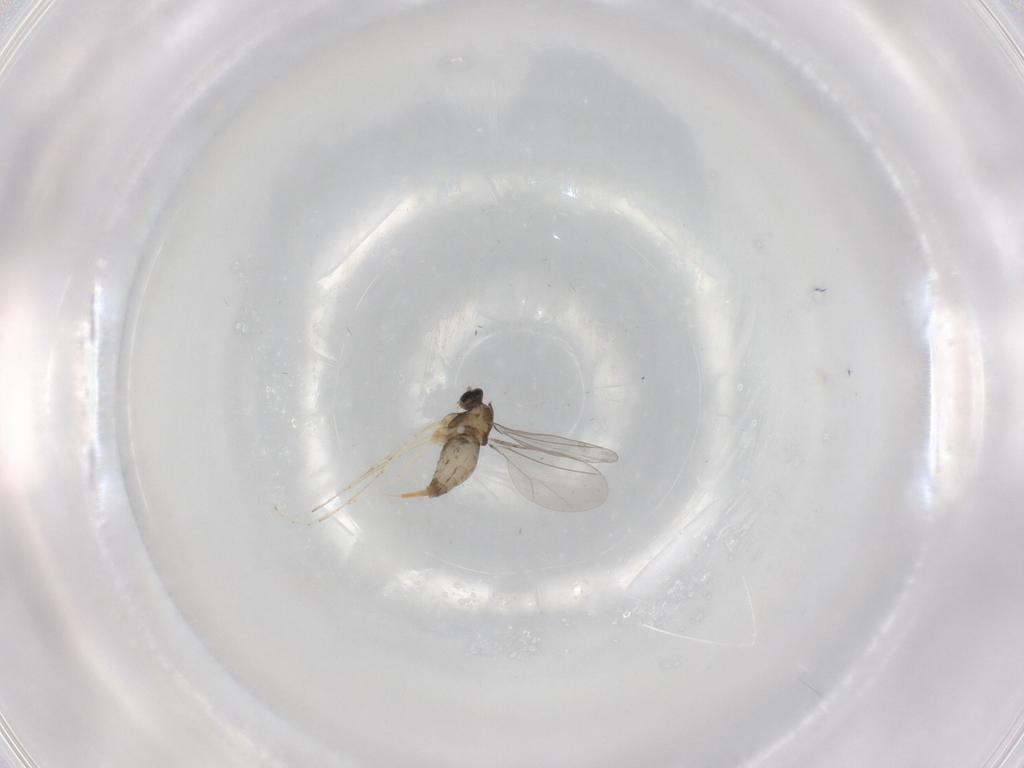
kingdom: Animalia
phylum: Arthropoda
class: Insecta
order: Diptera
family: Cecidomyiidae
